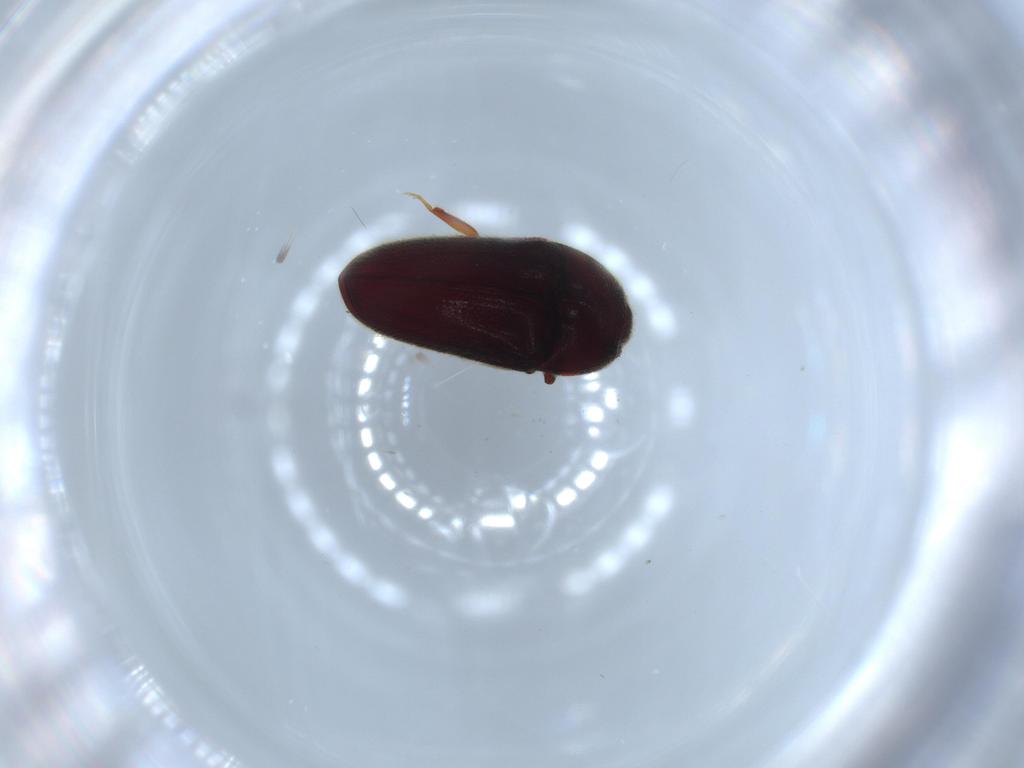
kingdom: Animalia
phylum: Arthropoda
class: Insecta
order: Coleoptera
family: Throscidae
